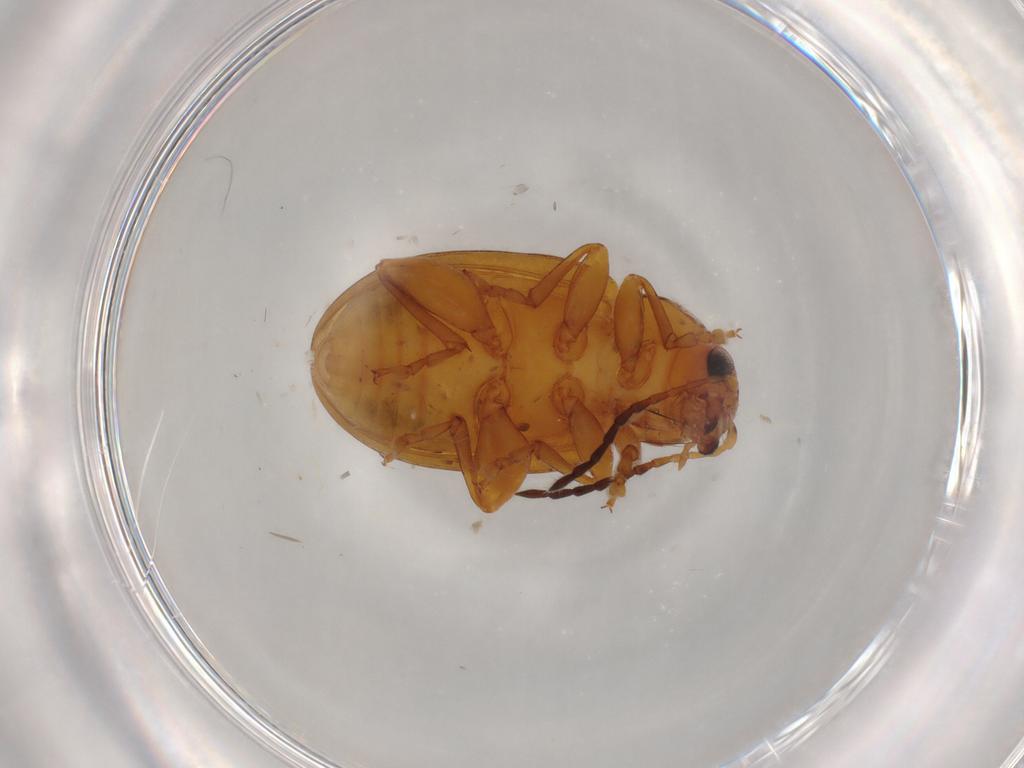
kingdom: Animalia
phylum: Arthropoda
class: Insecta
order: Coleoptera
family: Chrysomelidae
